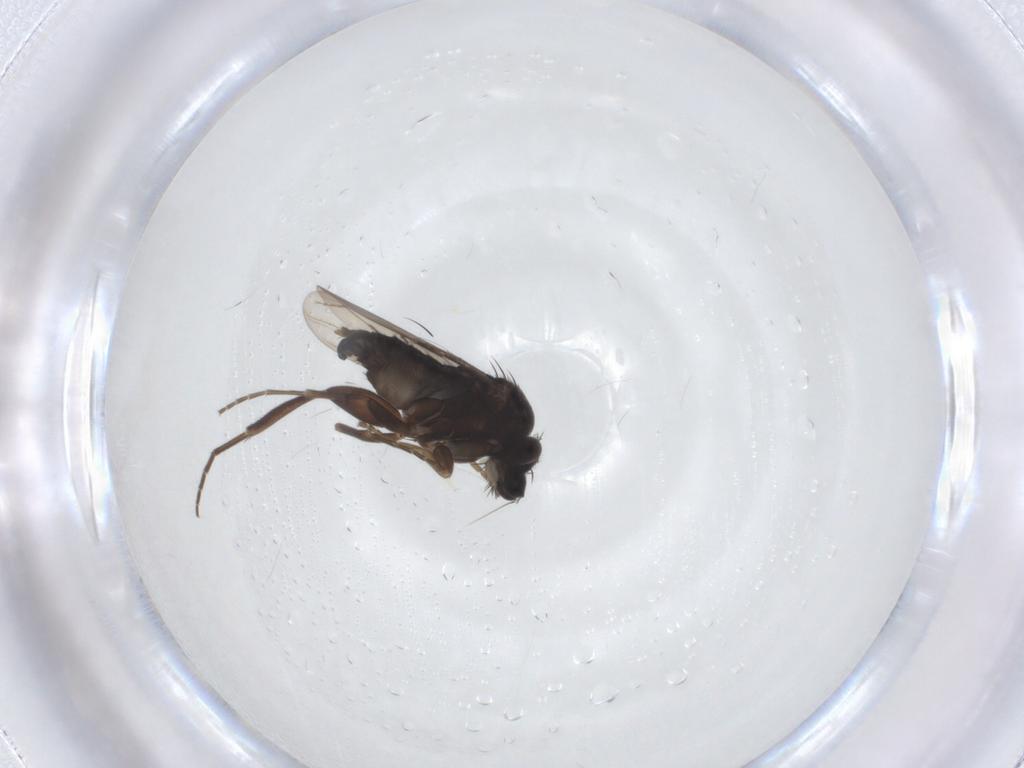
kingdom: Animalia
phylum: Arthropoda
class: Insecta
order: Diptera
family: Phoridae
